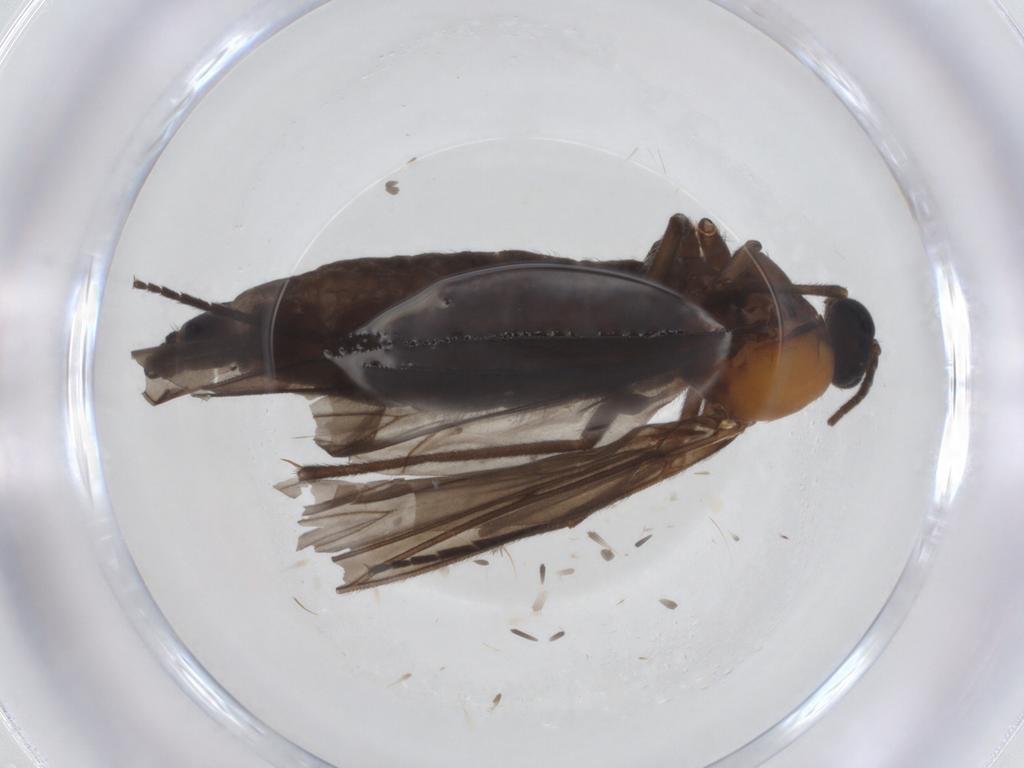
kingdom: Animalia
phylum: Arthropoda
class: Insecta
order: Diptera
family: Sciaridae
